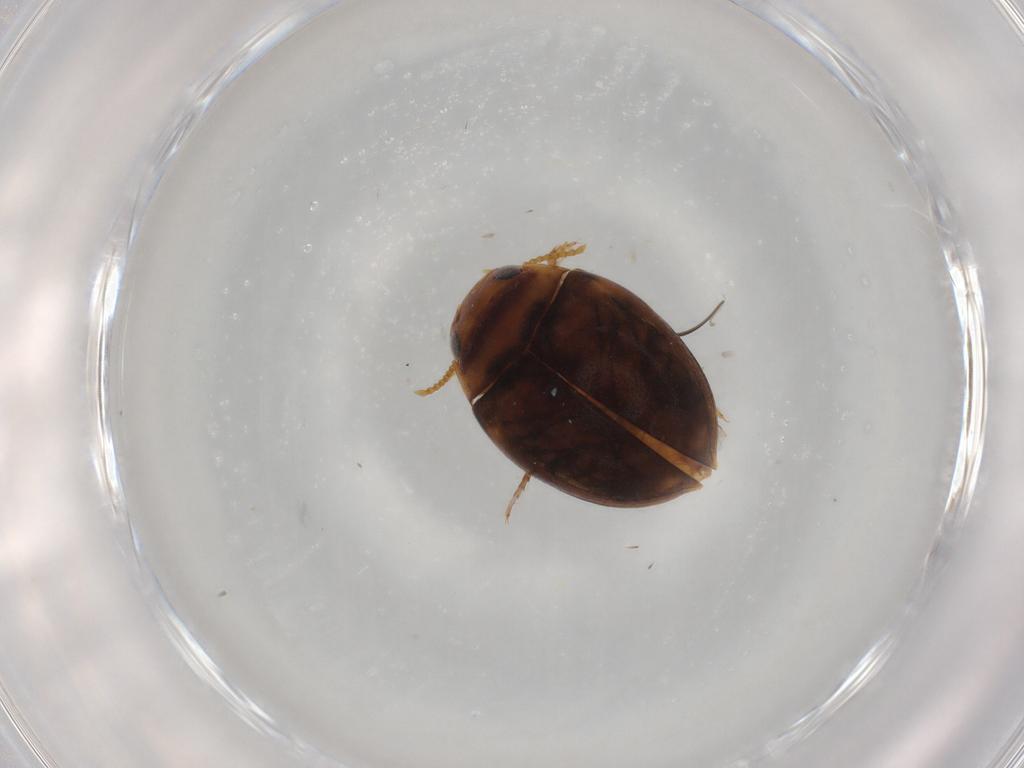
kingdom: Animalia
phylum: Arthropoda
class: Insecta
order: Coleoptera
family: Dytiscidae
